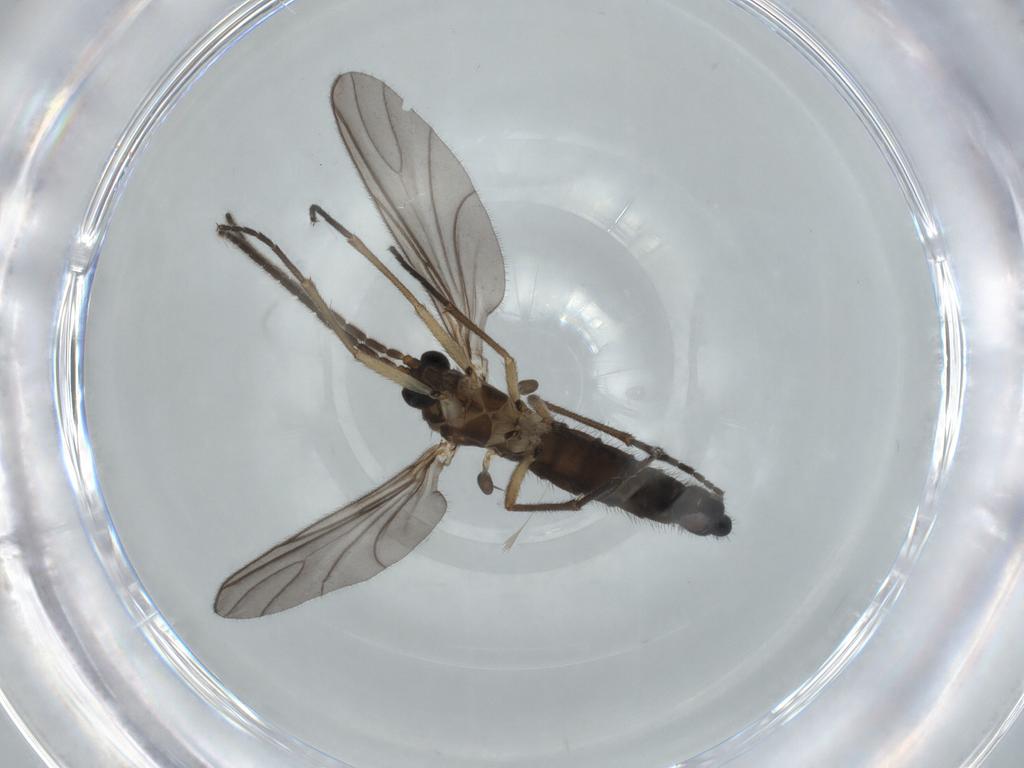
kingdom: Animalia
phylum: Arthropoda
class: Insecta
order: Diptera
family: Sciaridae
